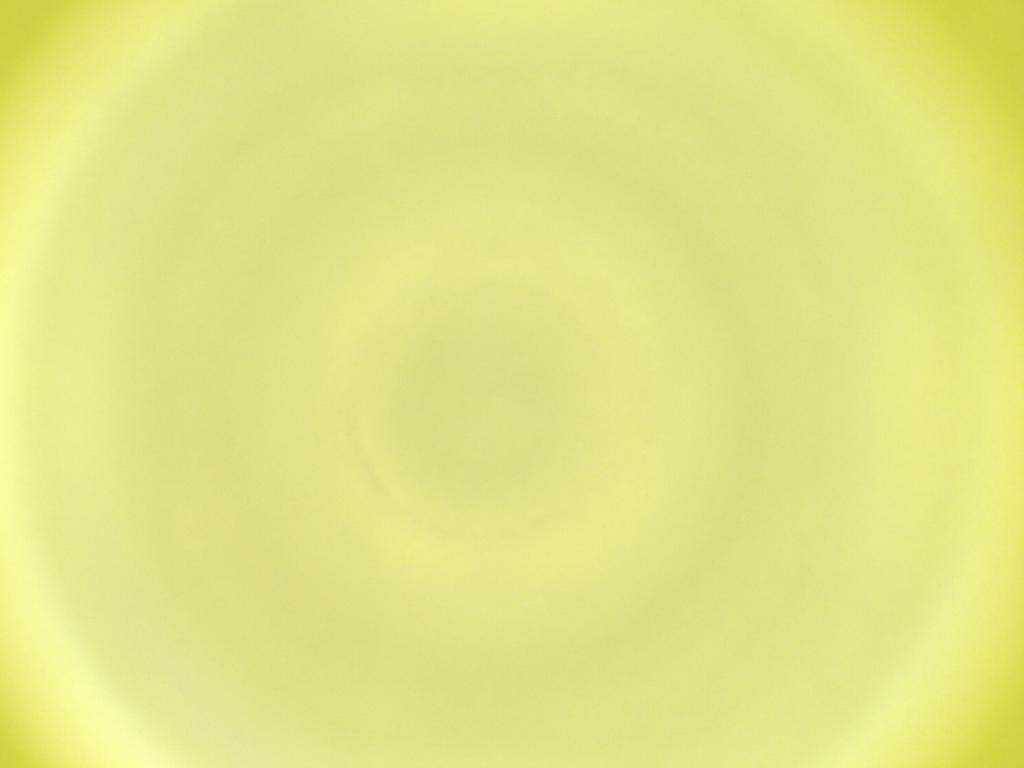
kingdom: Animalia
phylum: Arthropoda
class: Insecta
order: Diptera
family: Cecidomyiidae
